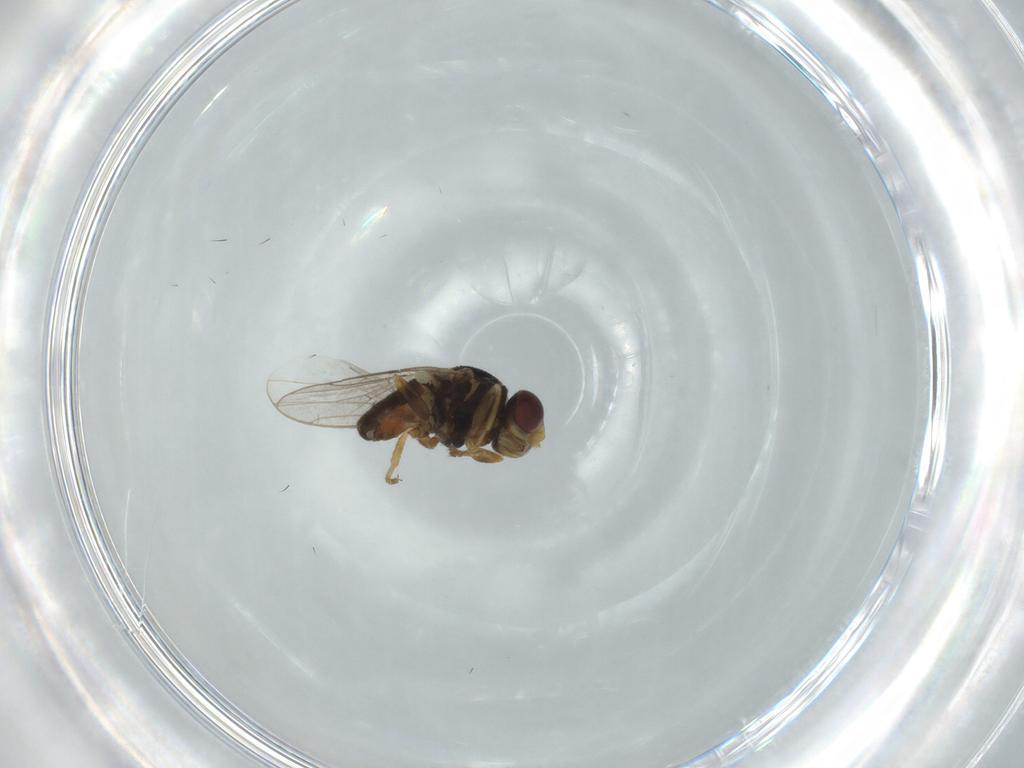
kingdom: Animalia
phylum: Arthropoda
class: Insecta
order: Diptera
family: Chloropidae
